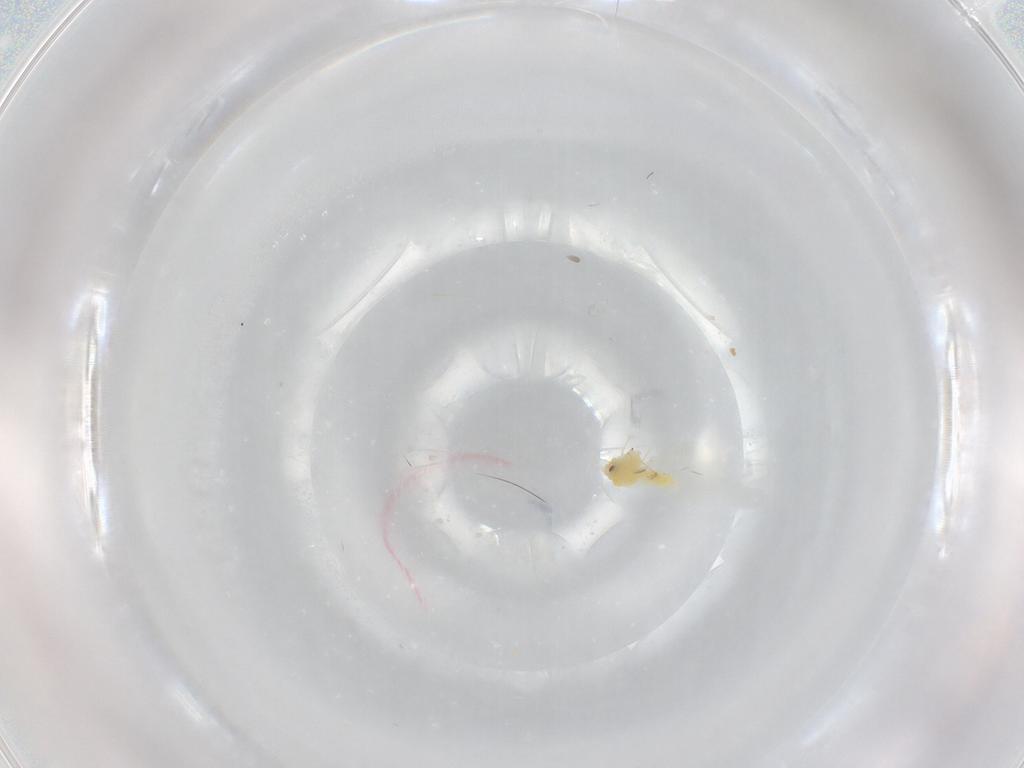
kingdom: Animalia
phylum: Arthropoda
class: Insecta
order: Hemiptera
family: Aleyrodidae
